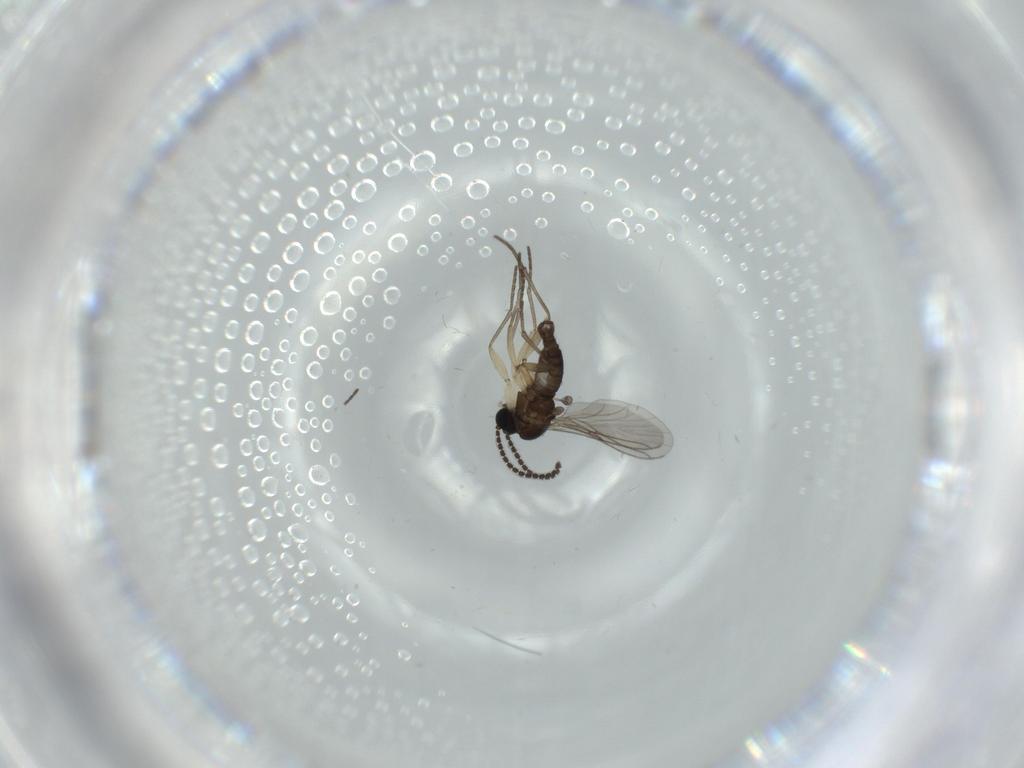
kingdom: Animalia
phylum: Arthropoda
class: Insecta
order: Diptera
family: Sciaridae
